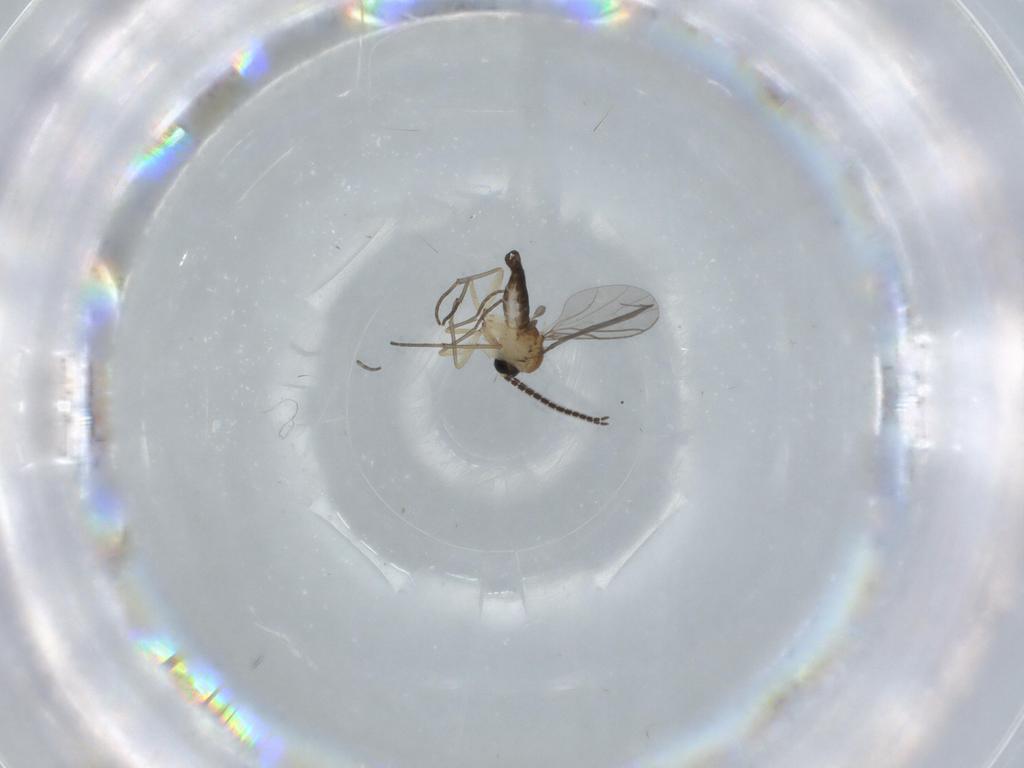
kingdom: Animalia
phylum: Arthropoda
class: Insecta
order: Diptera
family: Sciaridae
